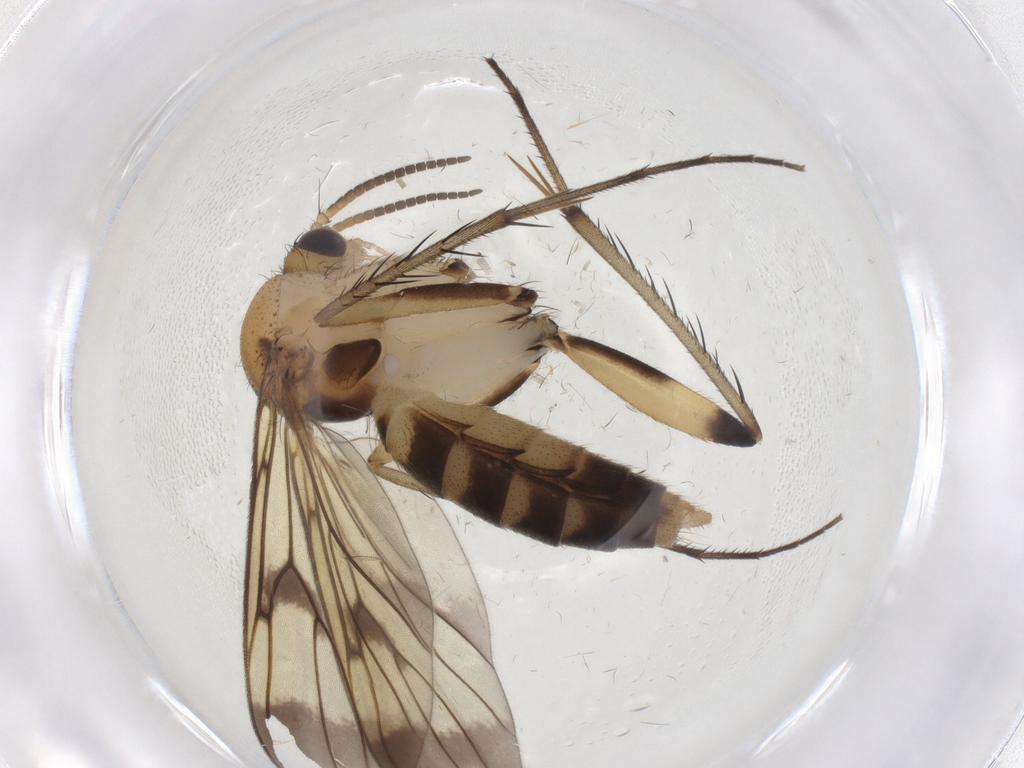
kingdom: Animalia
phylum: Arthropoda
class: Insecta
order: Diptera
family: Mycetophilidae
